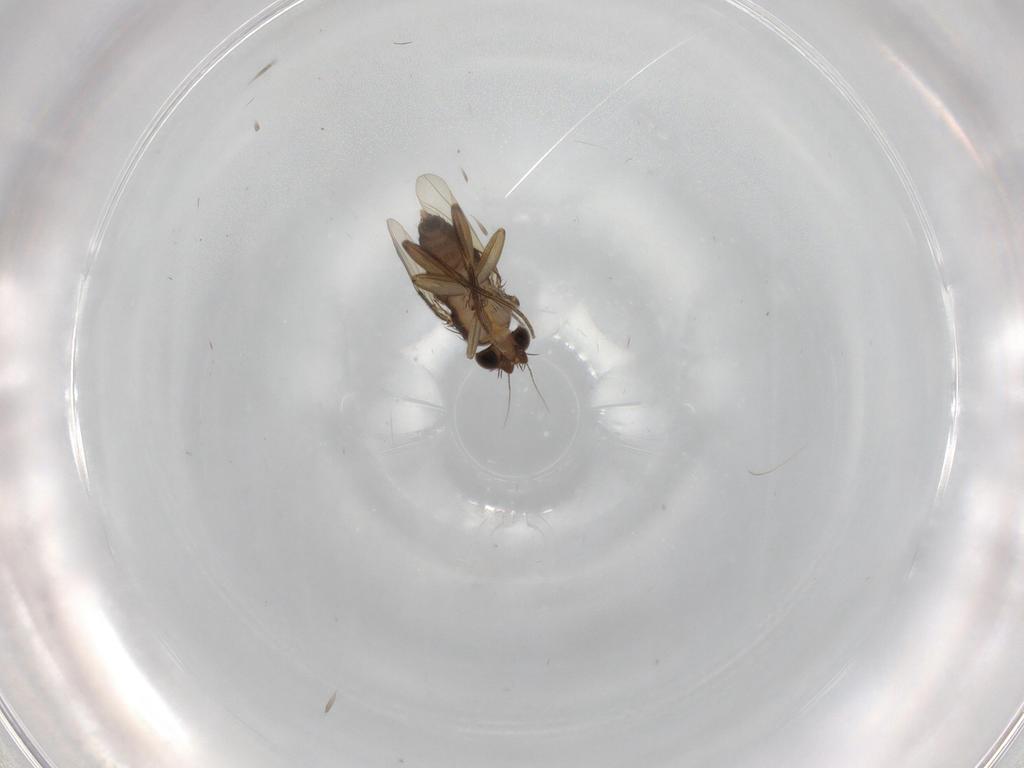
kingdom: Animalia
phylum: Arthropoda
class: Insecta
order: Diptera
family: Phoridae
